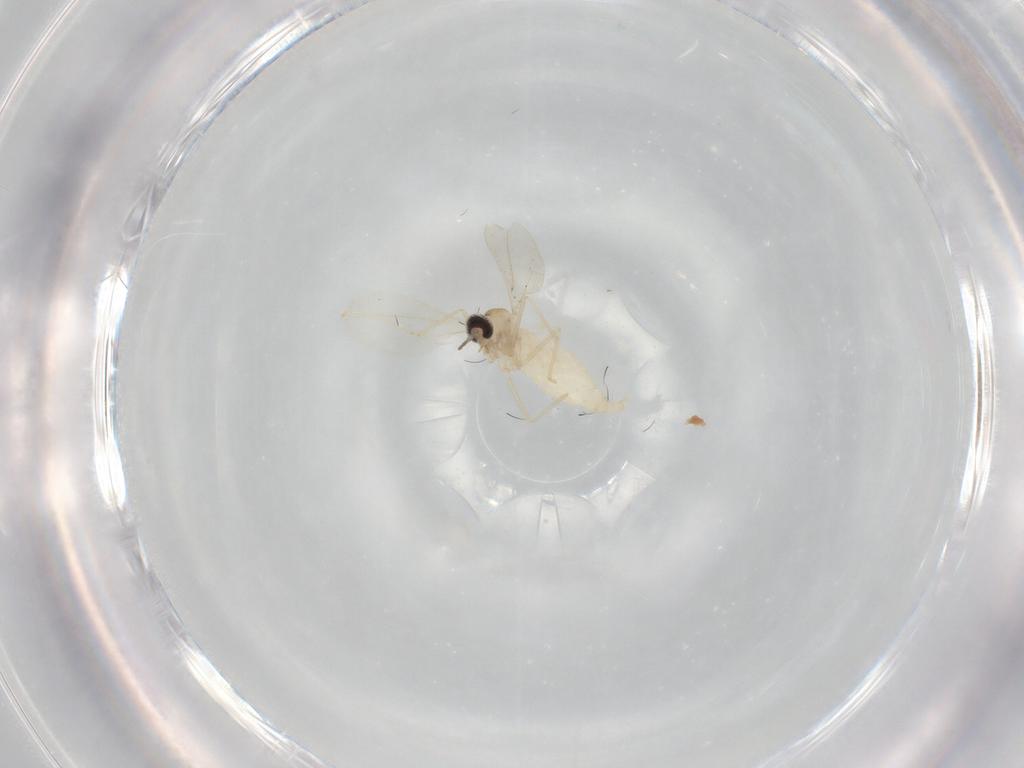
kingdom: Animalia
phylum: Arthropoda
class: Insecta
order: Diptera
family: Cecidomyiidae
